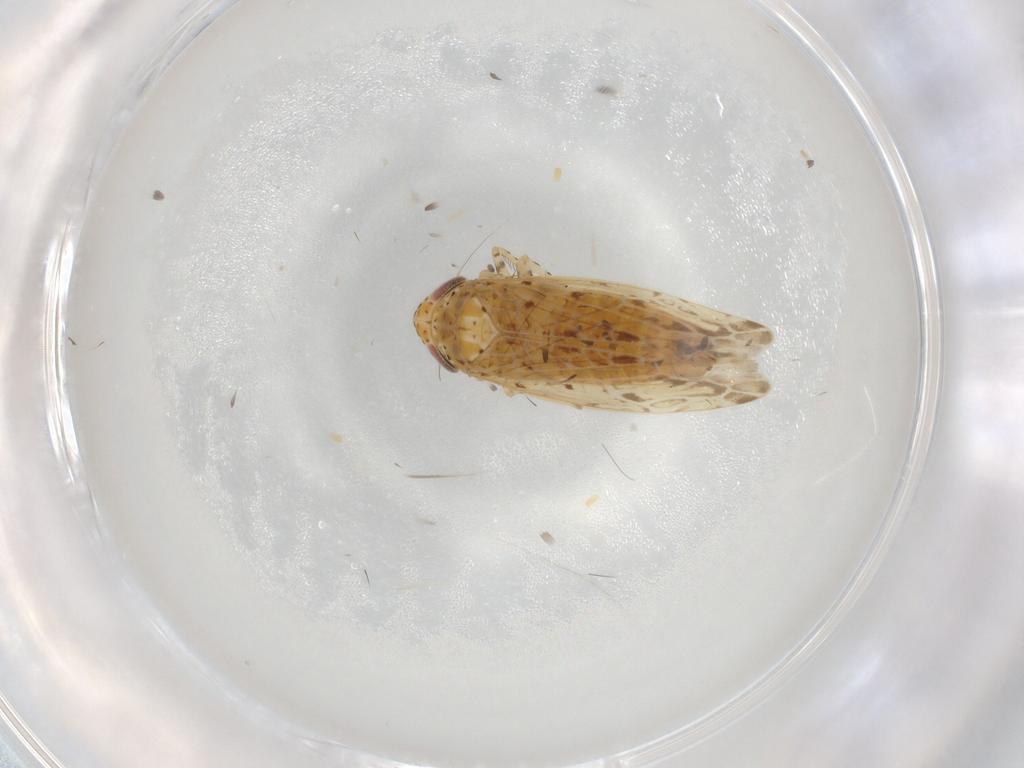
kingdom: Animalia
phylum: Arthropoda
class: Insecta
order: Hemiptera
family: Cicadellidae
